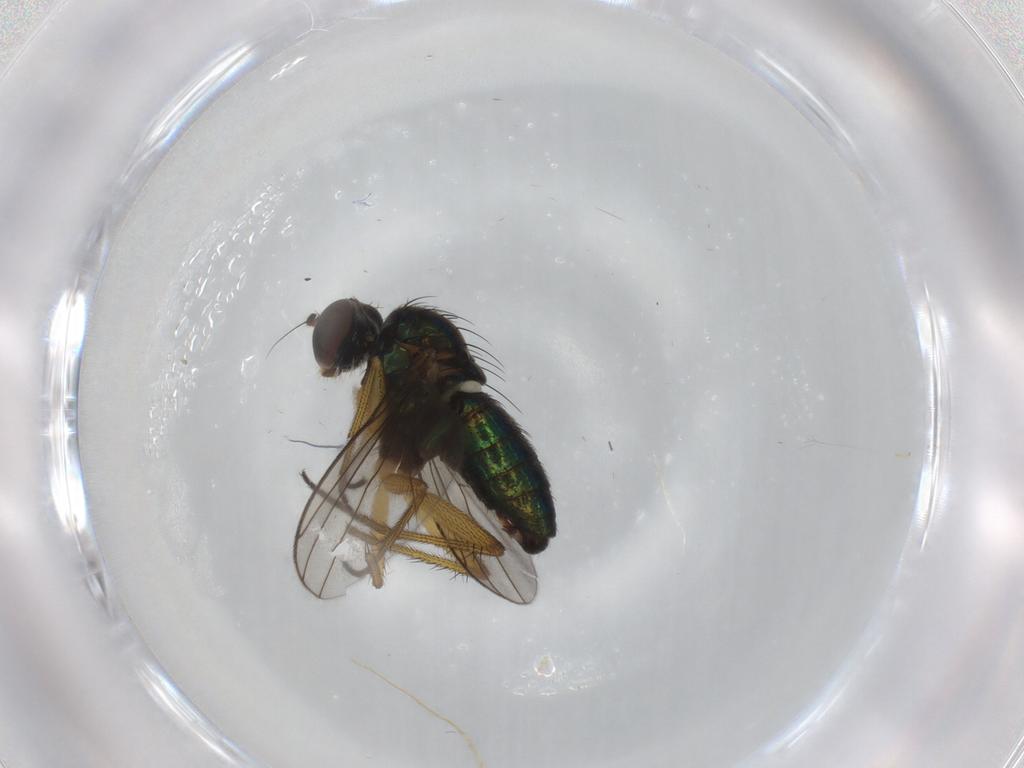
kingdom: Animalia
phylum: Arthropoda
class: Insecta
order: Diptera
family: Dolichopodidae
